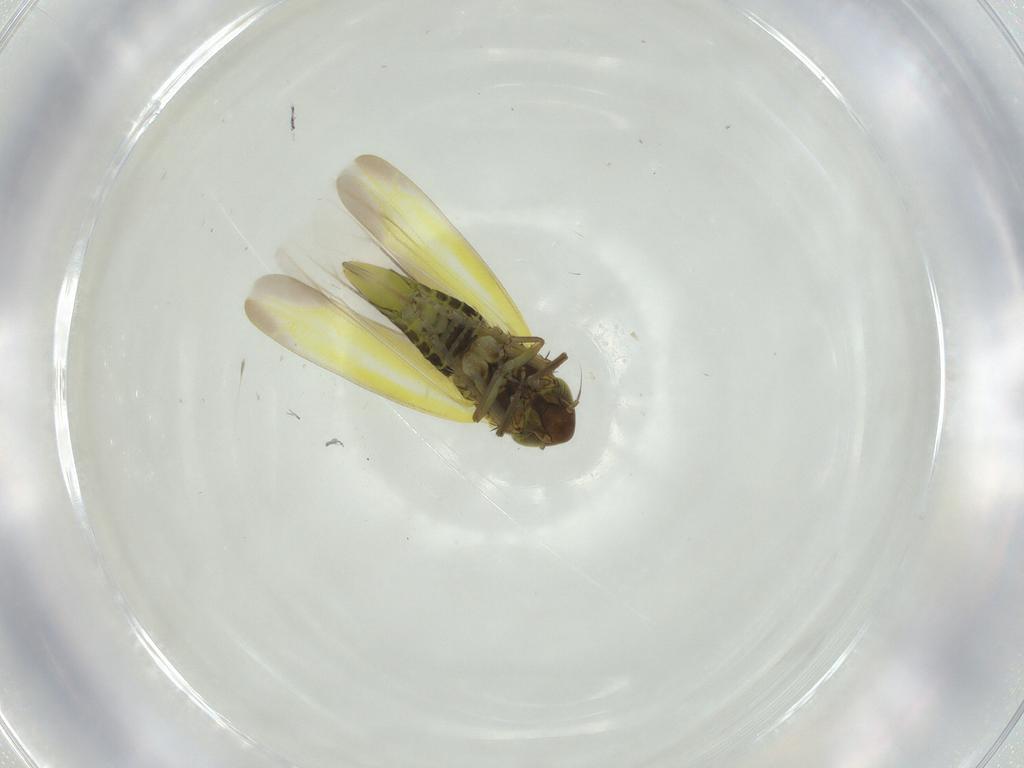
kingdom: Animalia
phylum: Arthropoda
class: Insecta
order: Hemiptera
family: Cicadellidae
